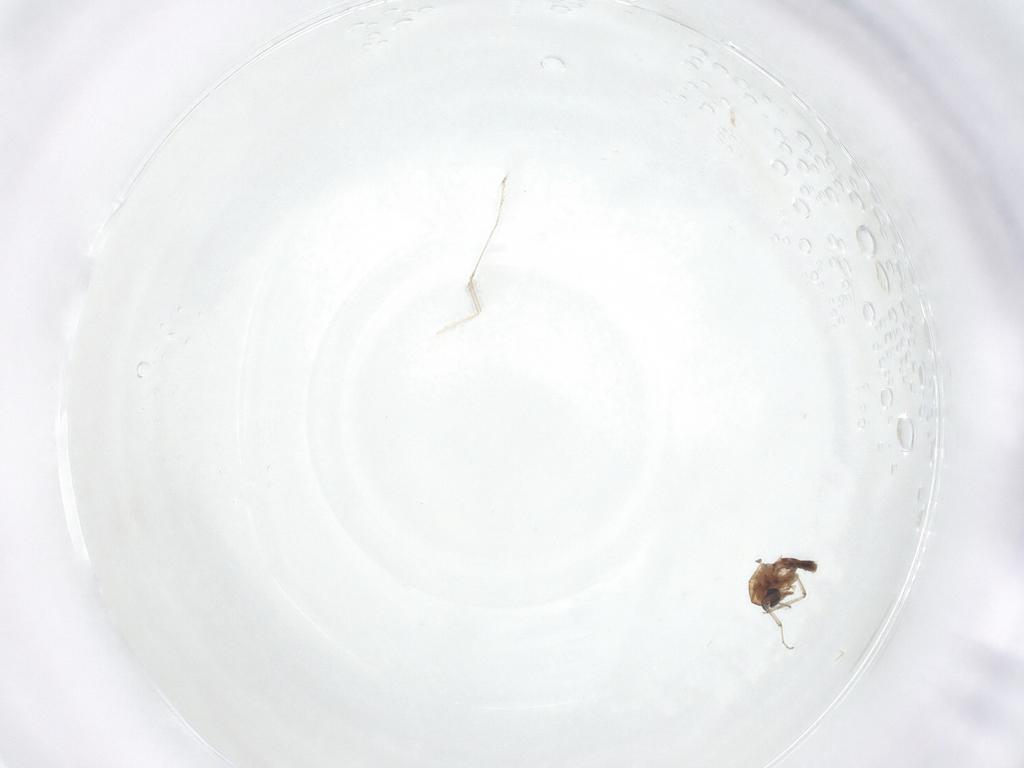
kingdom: Animalia
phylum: Arthropoda
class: Insecta
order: Diptera
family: Ceratopogonidae
